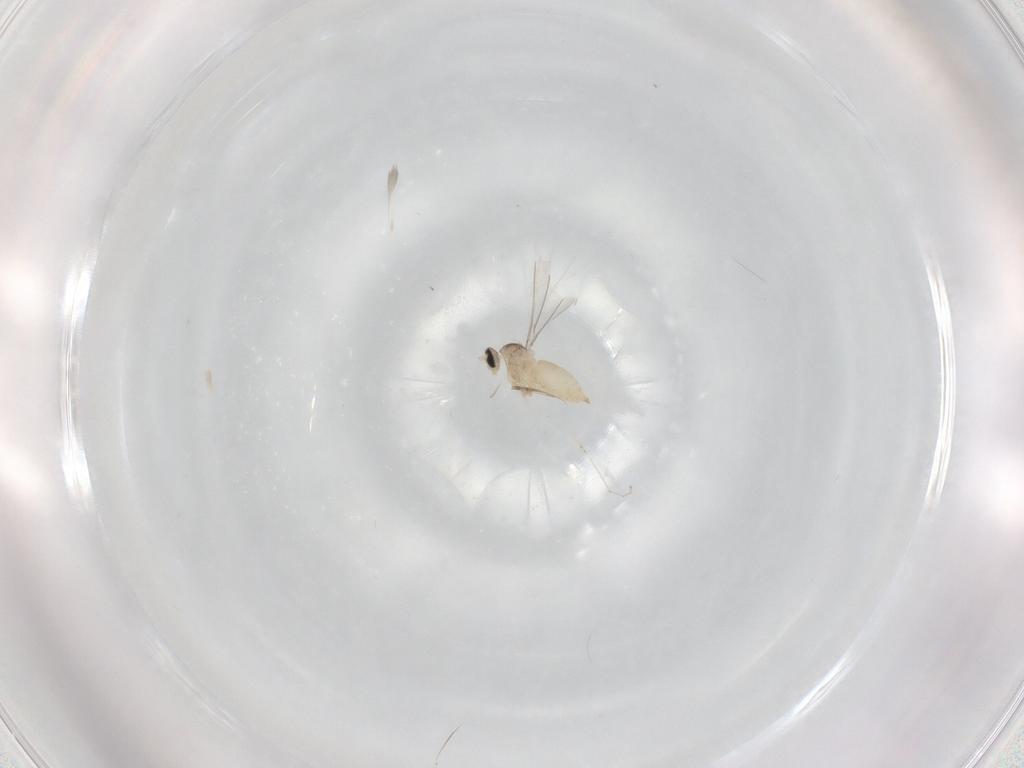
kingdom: Animalia
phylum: Arthropoda
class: Insecta
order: Diptera
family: Cecidomyiidae
